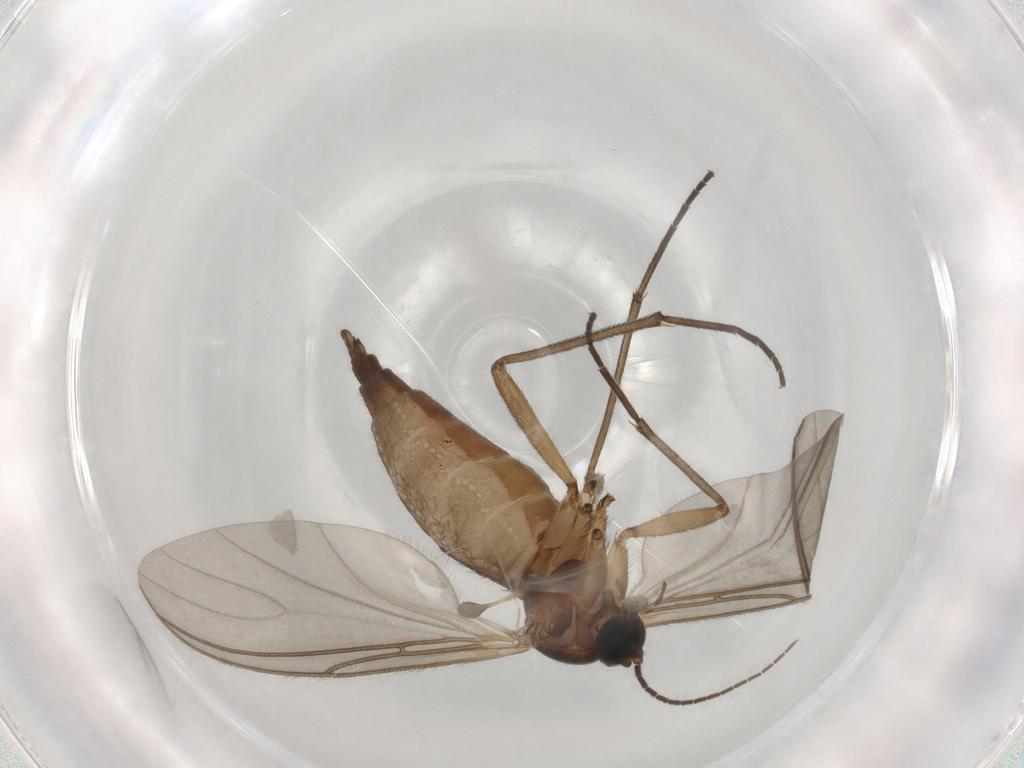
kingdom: Animalia
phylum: Arthropoda
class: Insecta
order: Diptera
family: Sciaridae
